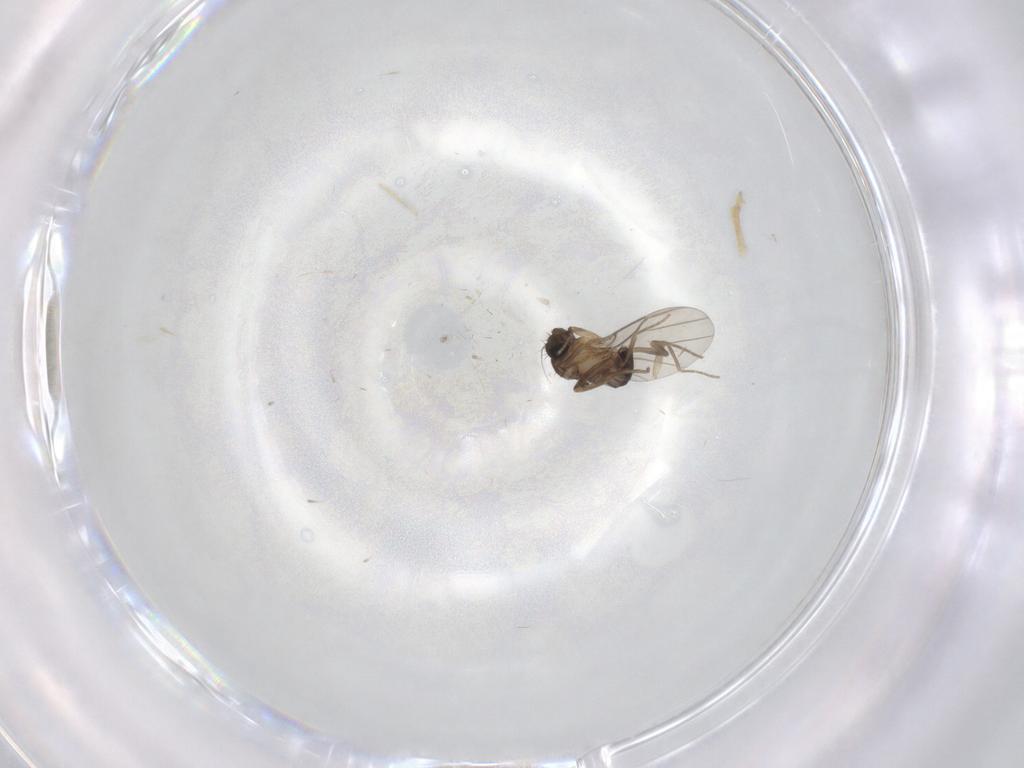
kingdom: Animalia
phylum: Arthropoda
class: Insecta
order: Diptera
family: Phoridae
